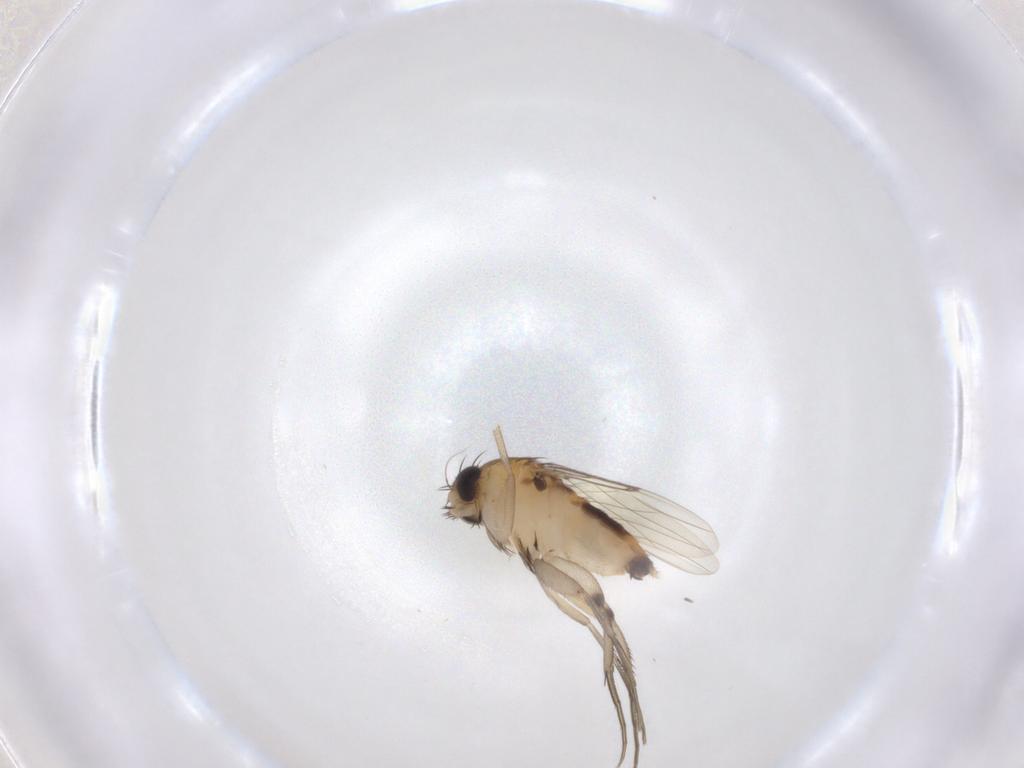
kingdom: Animalia
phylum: Arthropoda
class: Insecta
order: Diptera
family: Phoridae
